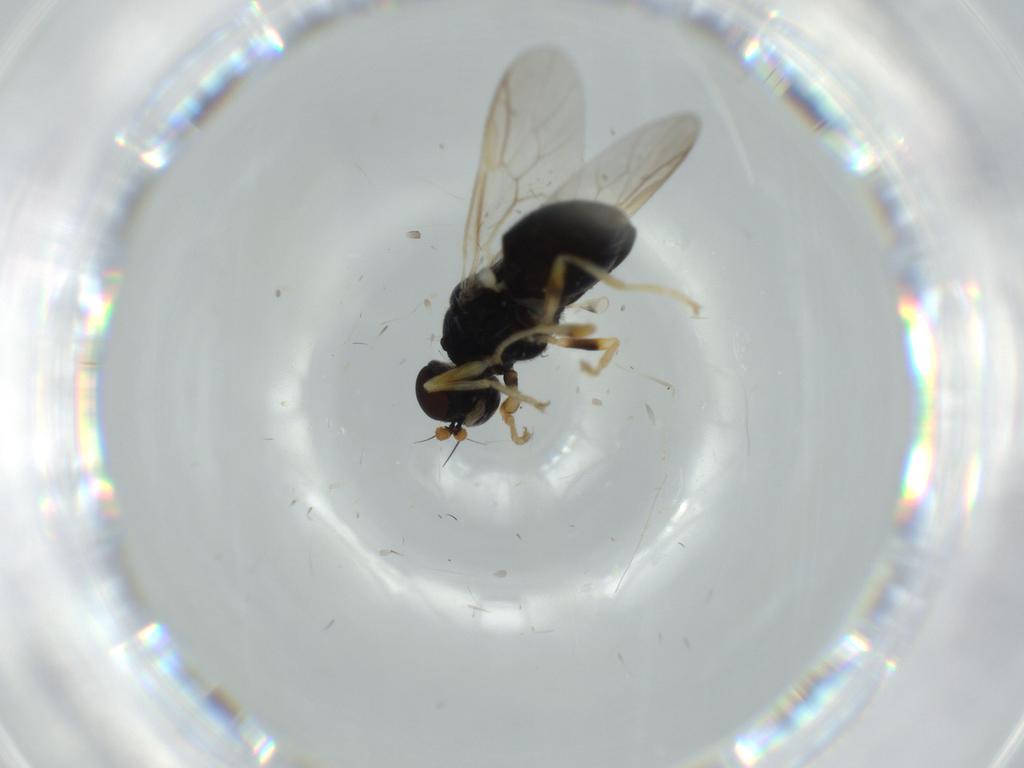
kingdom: Animalia
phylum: Arthropoda
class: Insecta
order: Diptera
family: Stratiomyidae
